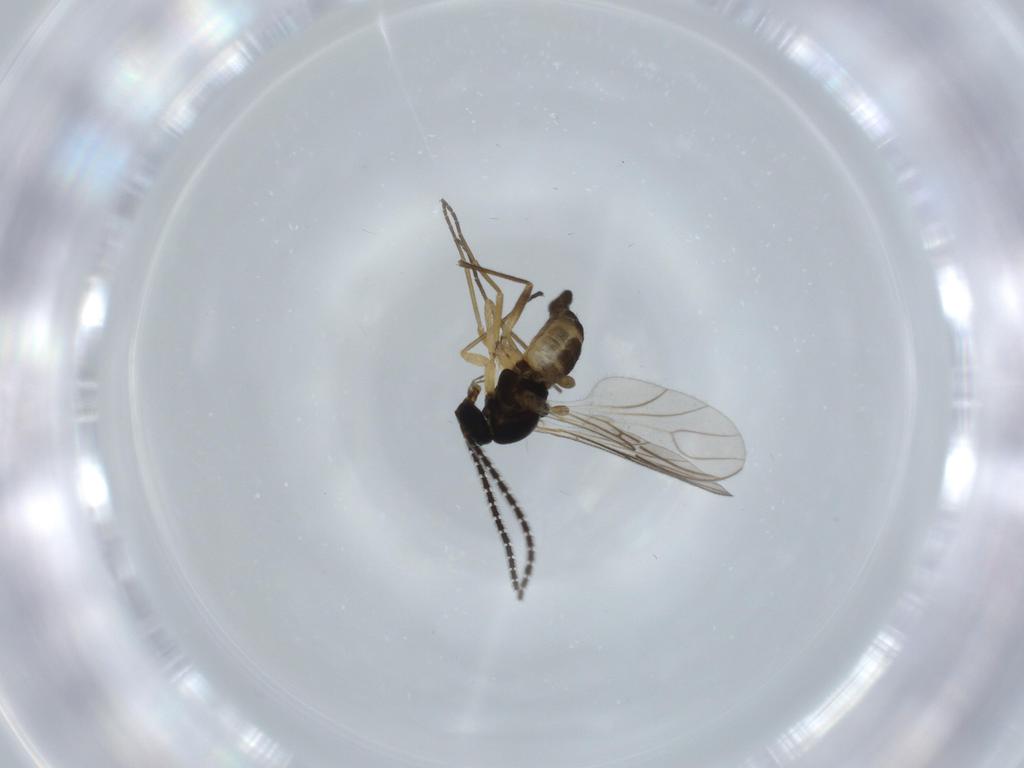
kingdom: Animalia
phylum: Arthropoda
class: Insecta
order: Diptera
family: Sciaridae
